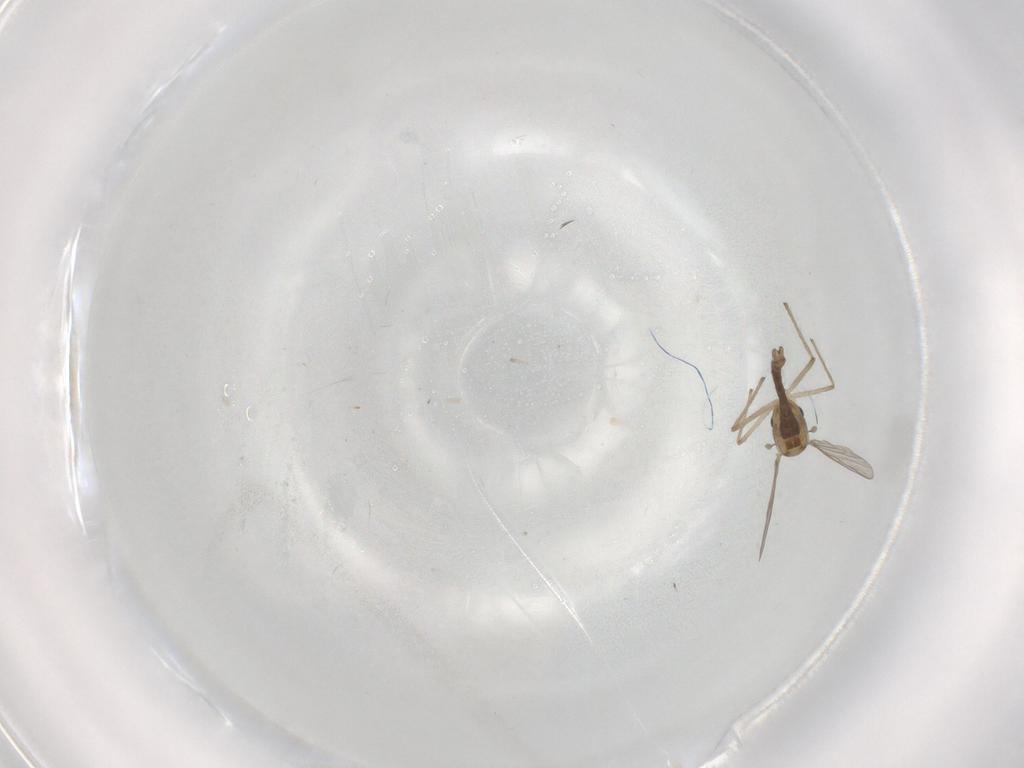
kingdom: Animalia
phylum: Arthropoda
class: Insecta
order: Diptera
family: Chironomidae
